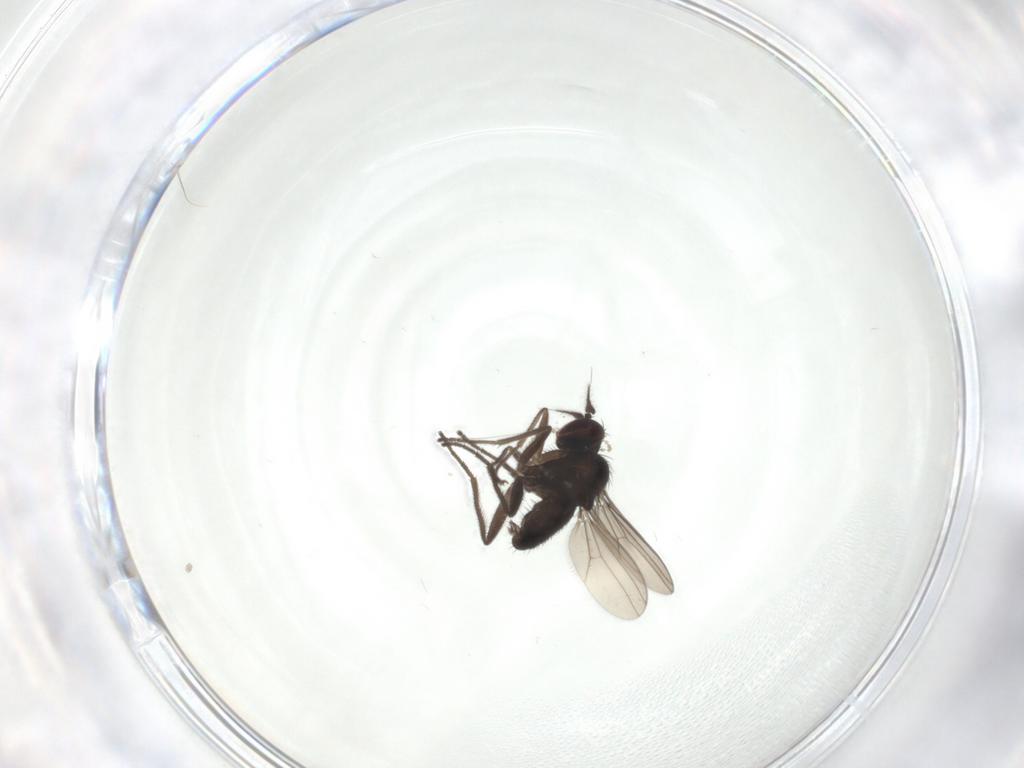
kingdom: Animalia
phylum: Arthropoda
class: Insecta
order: Diptera
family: Dolichopodidae
